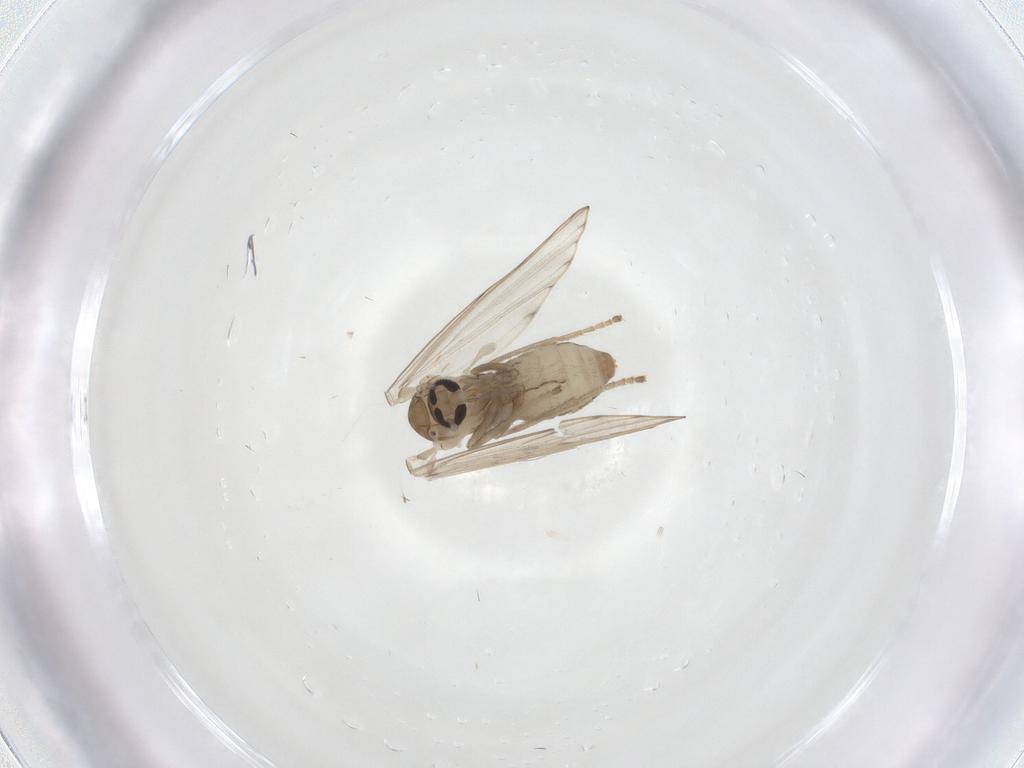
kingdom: Animalia
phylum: Arthropoda
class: Insecta
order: Diptera
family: Psychodidae
